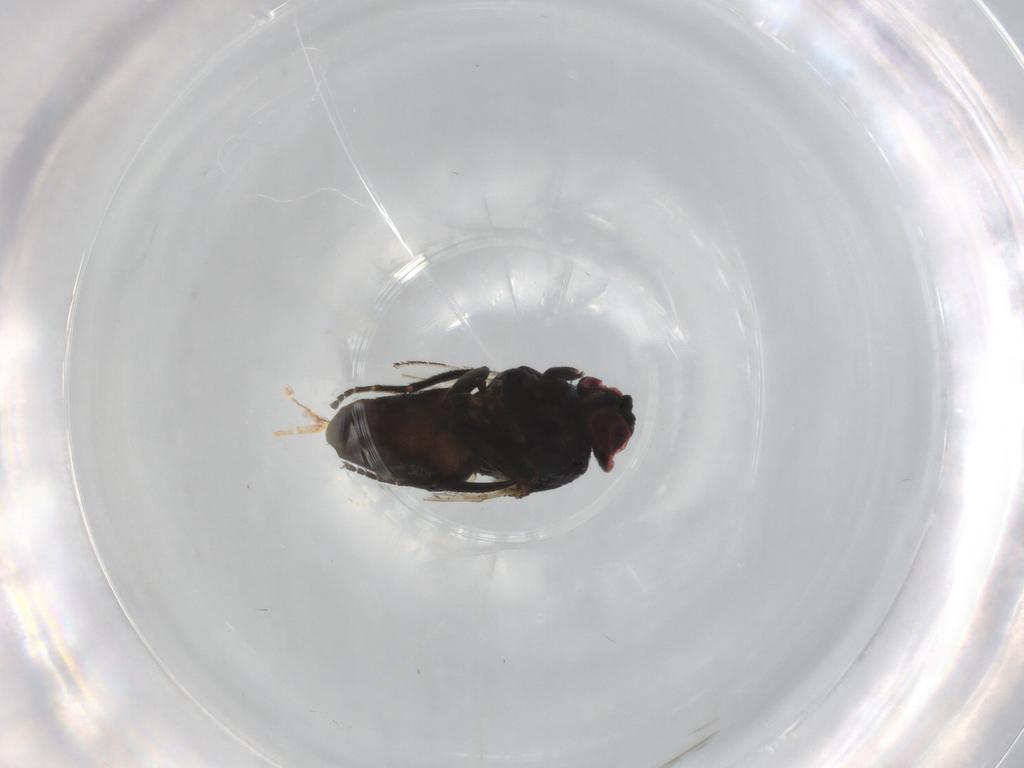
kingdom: Animalia
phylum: Arthropoda
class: Insecta
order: Diptera
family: Milichiidae
